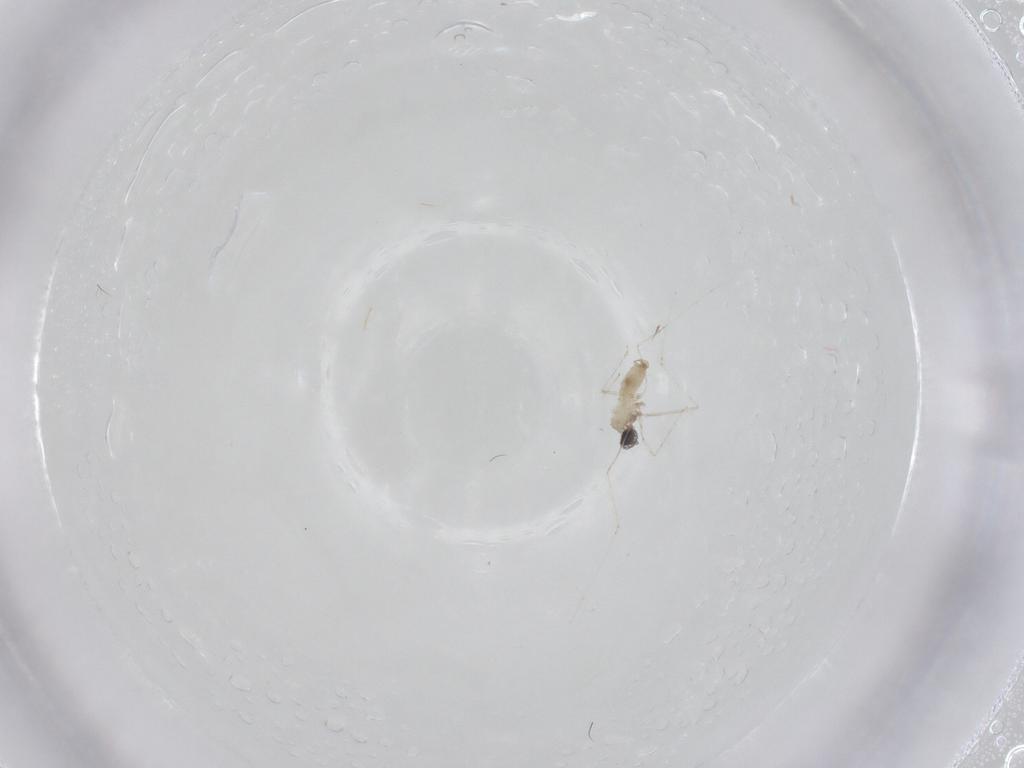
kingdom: Animalia
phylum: Arthropoda
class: Insecta
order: Diptera
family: Cecidomyiidae
